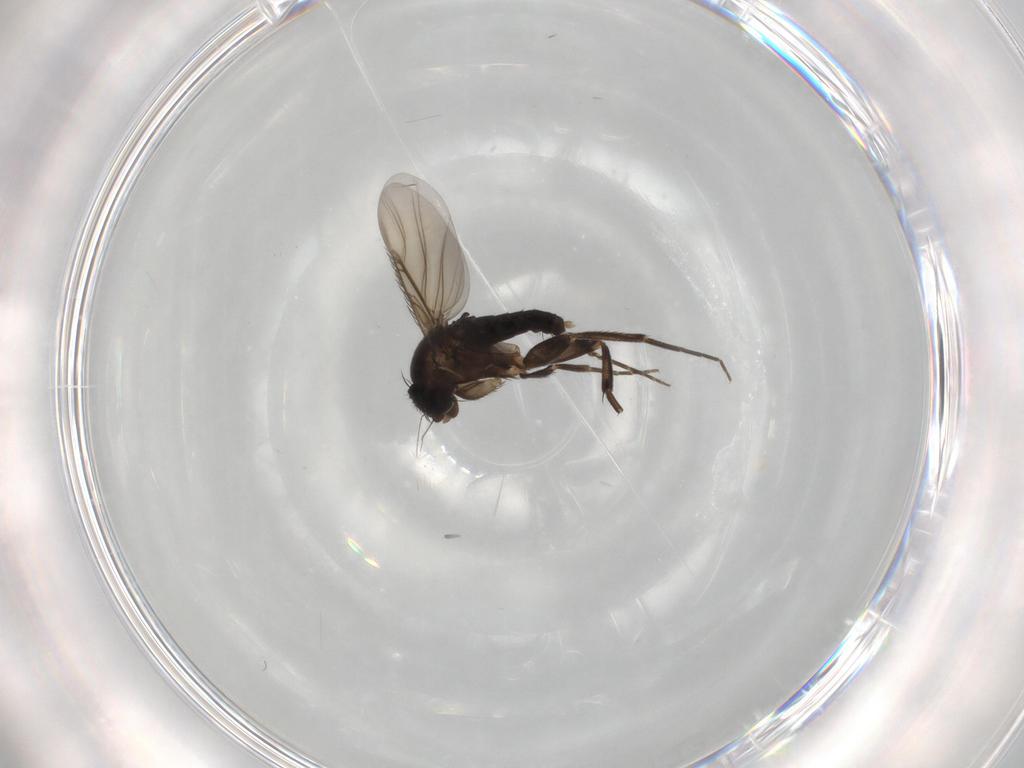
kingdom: Animalia
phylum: Arthropoda
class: Insecta
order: Diptera
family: Phoridae
